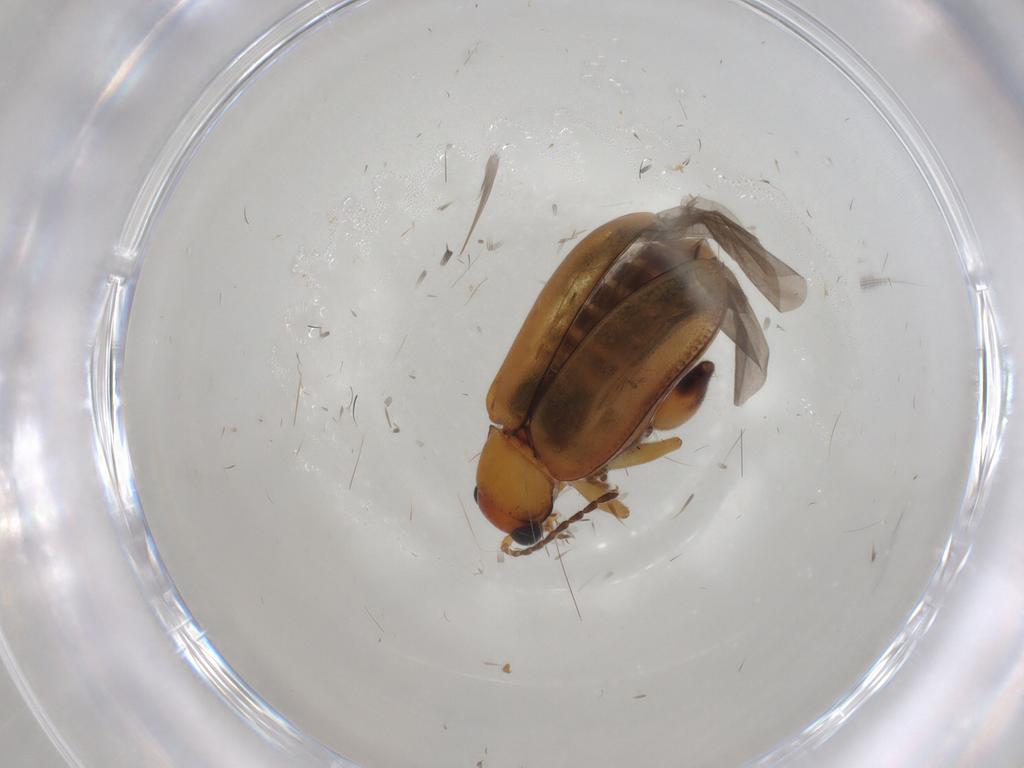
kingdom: Animalia
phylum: Arthropoda
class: Insecta
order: Coleoptera
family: Chrysomelidae
